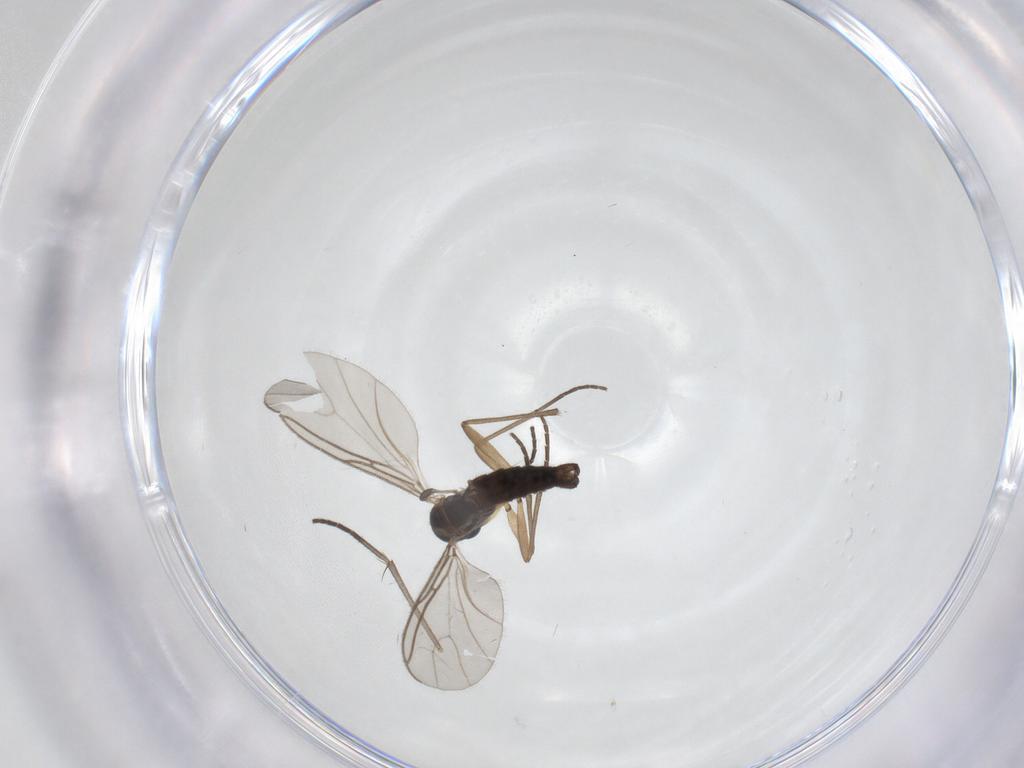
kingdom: Animalia
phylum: Arthropoda
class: Insecta
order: Diptera
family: Sciaridae
